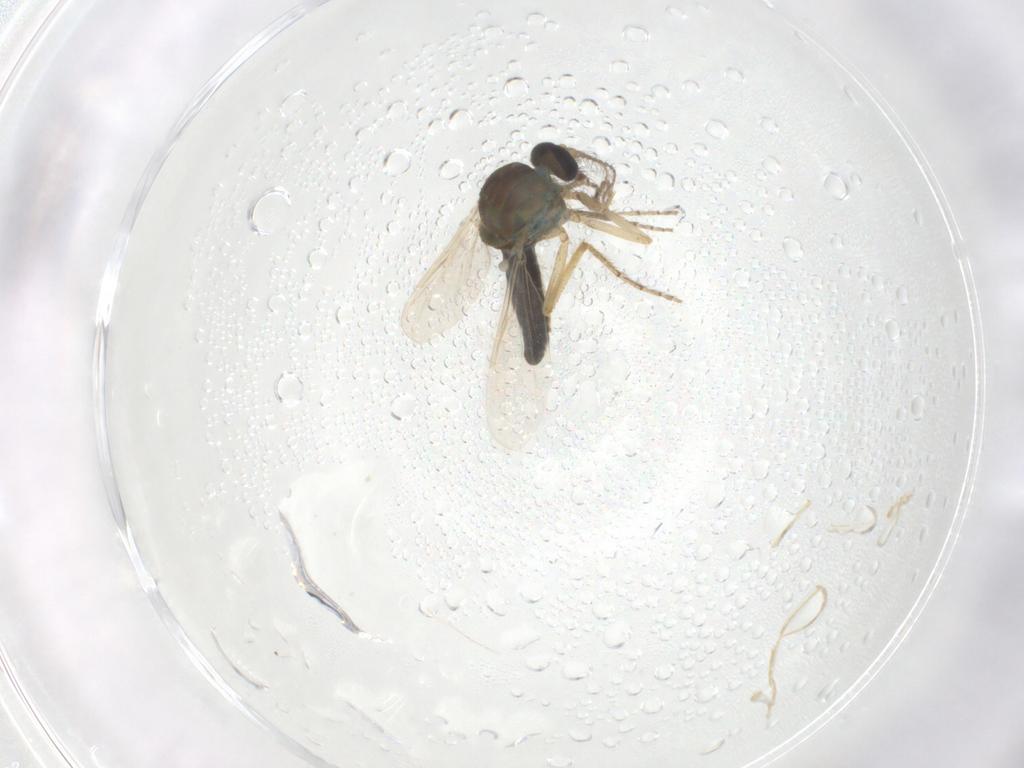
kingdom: Animalia
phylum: Arthropoda
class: Insecta
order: Diptera
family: Ceratopogonidae
